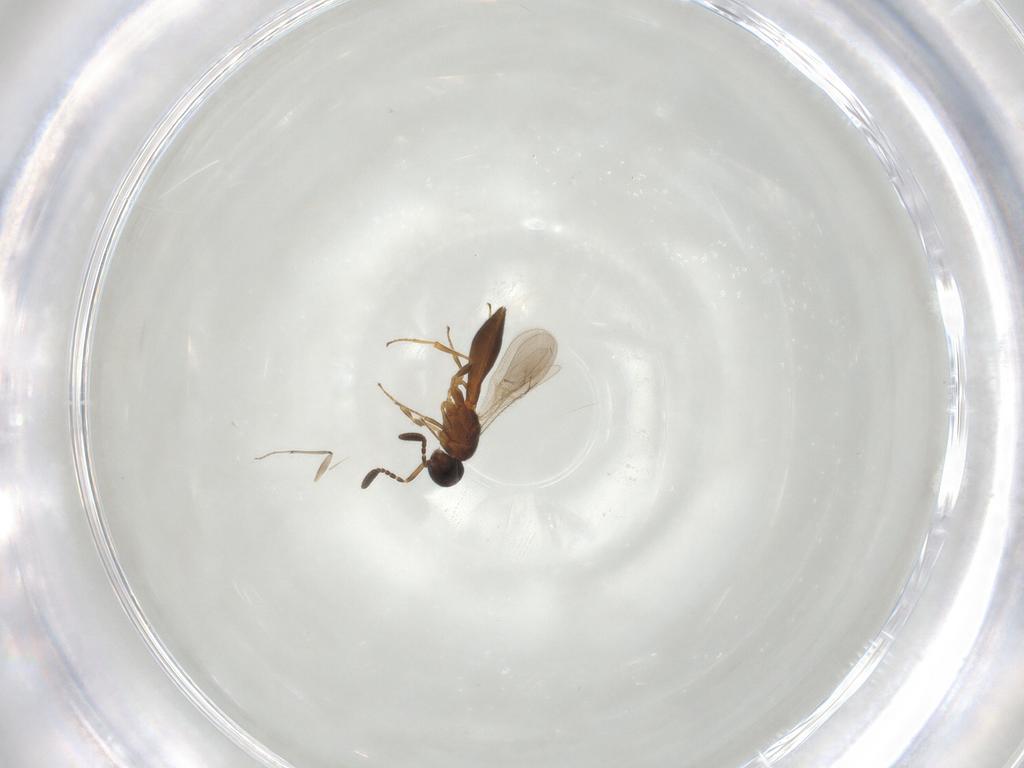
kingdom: Animalia
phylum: Arthropoda
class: Insecta
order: Hymenoptera
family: Scelionidae
